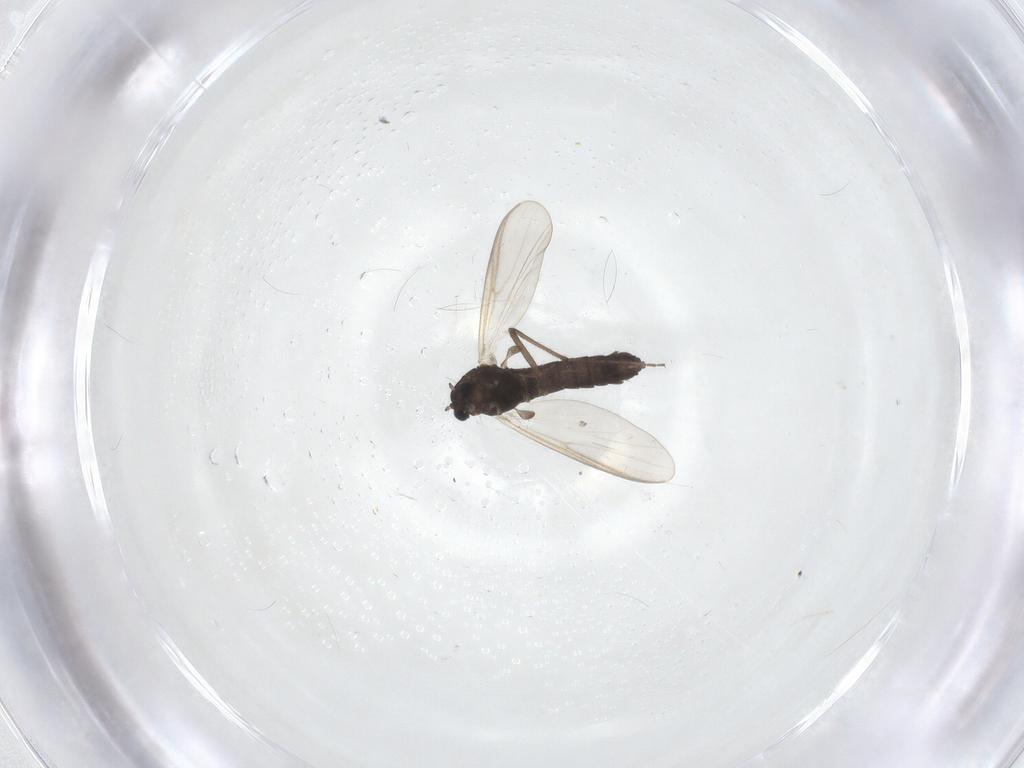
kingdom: Animalia
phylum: Arthropoda
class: Insecta
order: Diptera
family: Chironomidae
